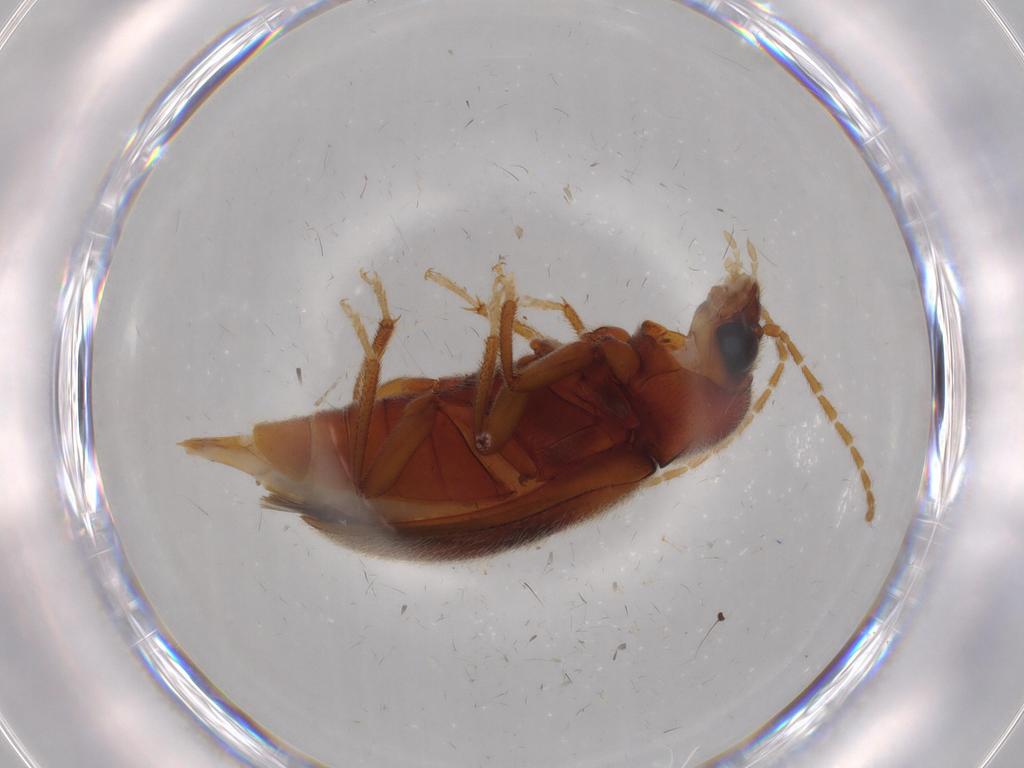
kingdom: Animalia
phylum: Arthropoda
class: Insecta
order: Coleoptera
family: Ptilodactylidae
